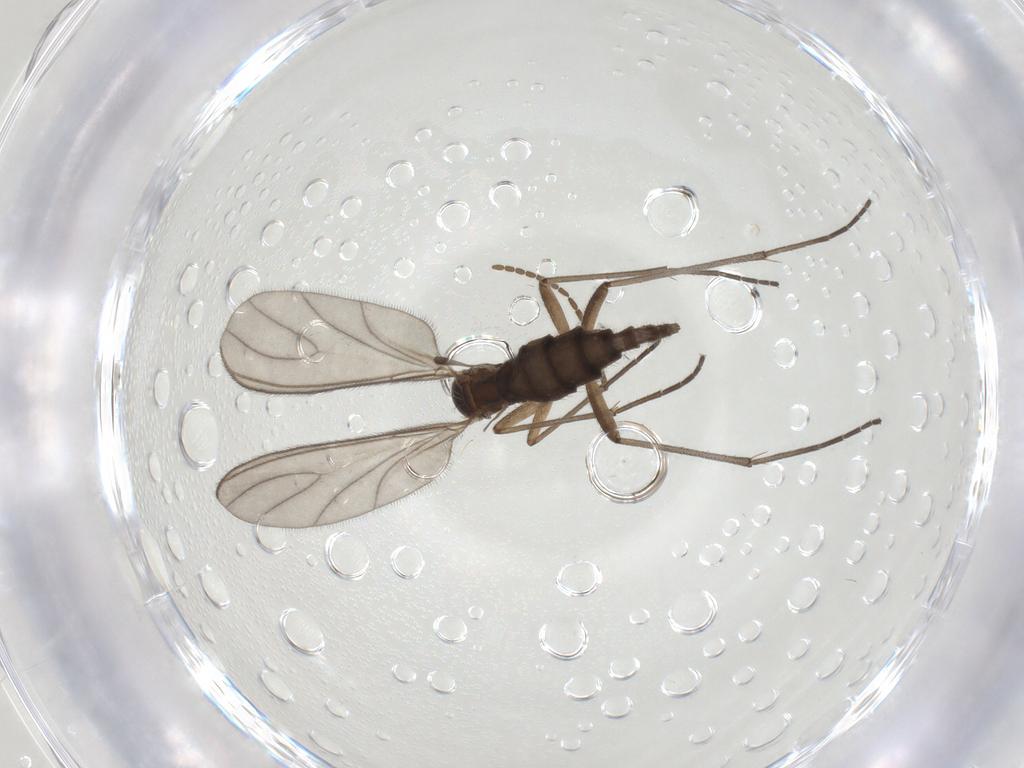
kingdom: Animalia
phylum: Arthropoda
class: Insecta
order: Diptera
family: Sciaridae
